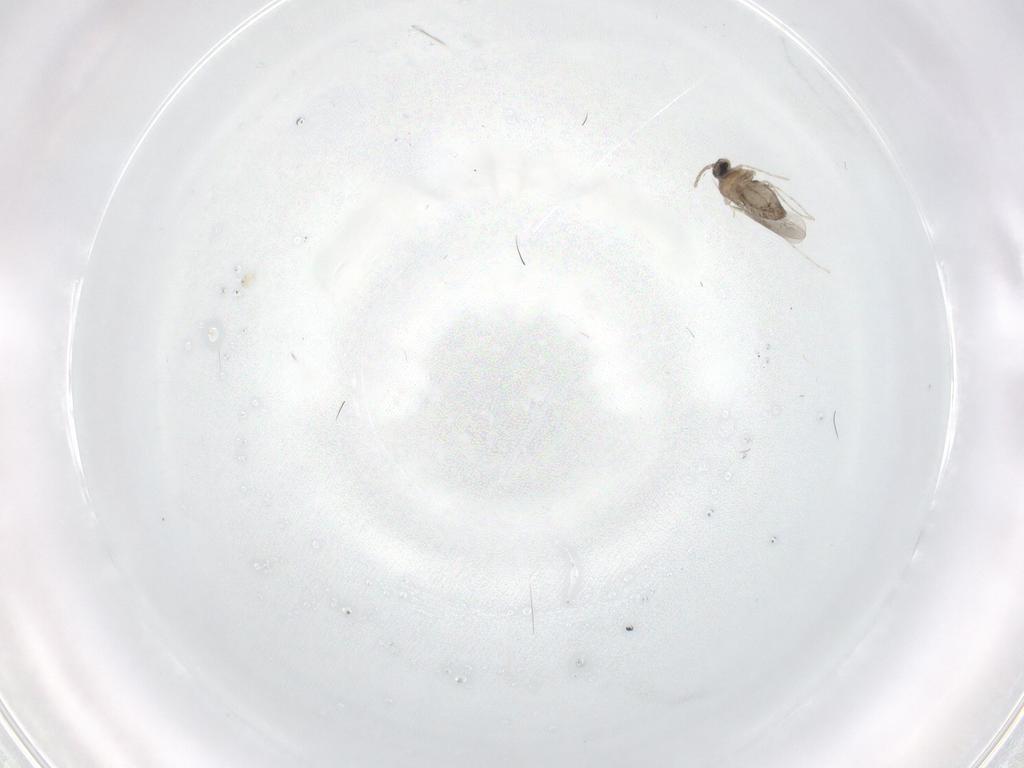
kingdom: Animalia
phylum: Arthropoda
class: Insecta
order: Diptera
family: Cecidomyiidae
